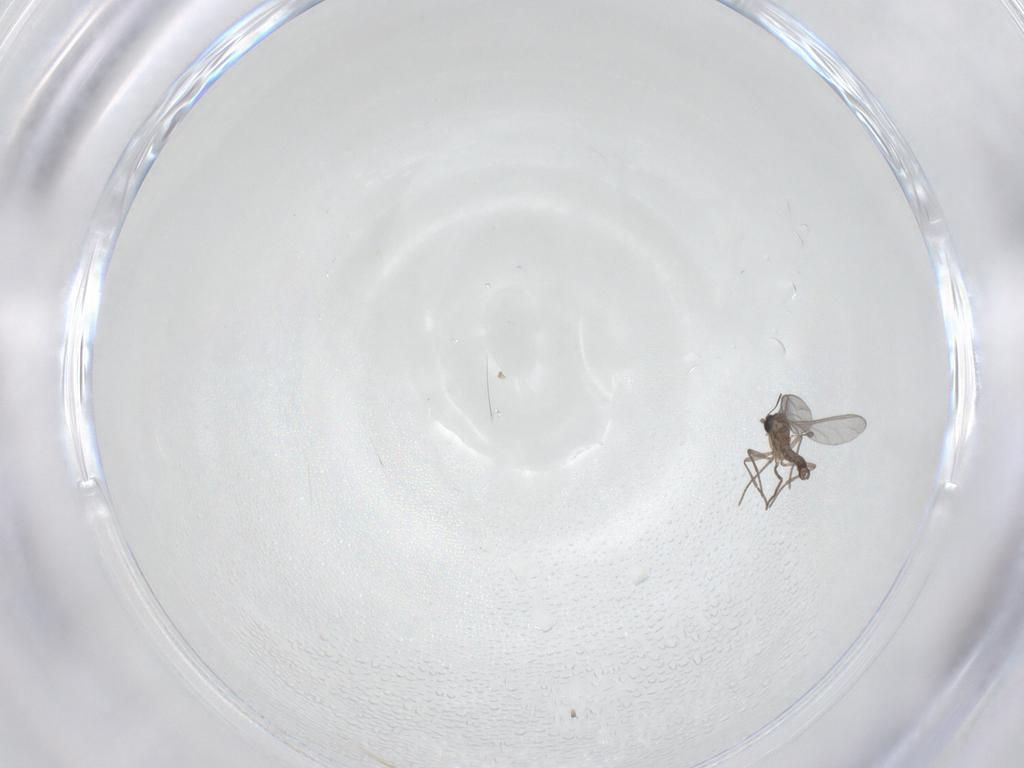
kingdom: Animalia
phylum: Arthropoda
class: Insecta
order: Diptera
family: Sciaridae
